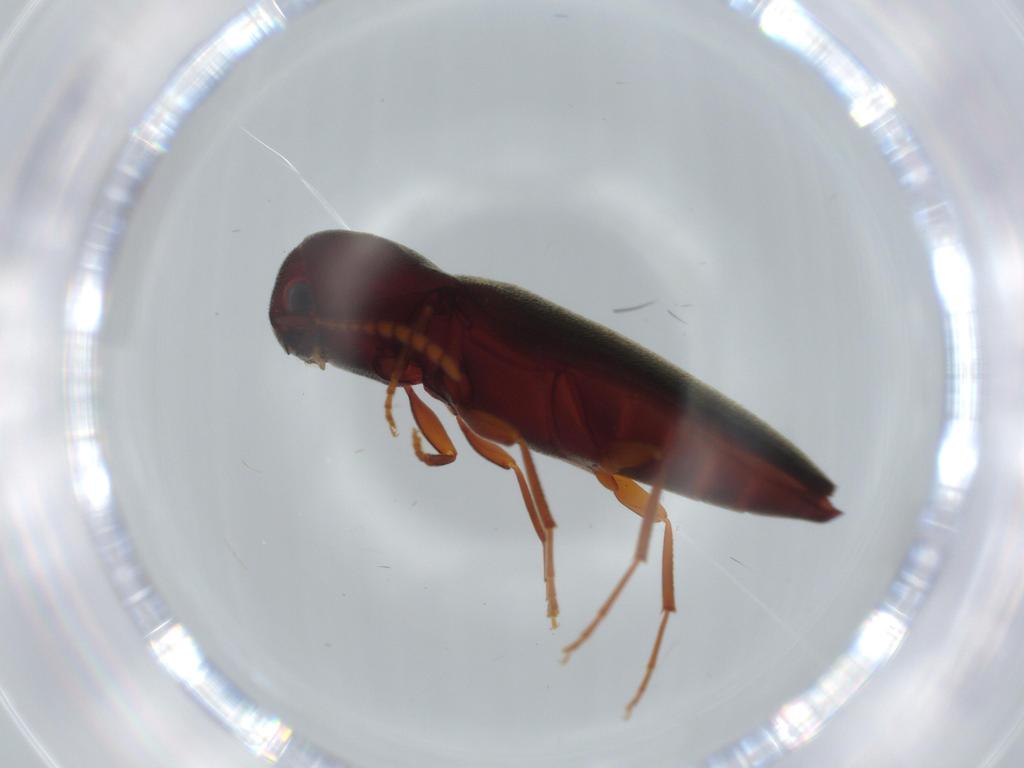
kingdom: Animalia
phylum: Arthropoda
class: Insecta
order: Coleoptera
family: Eucnemidae
